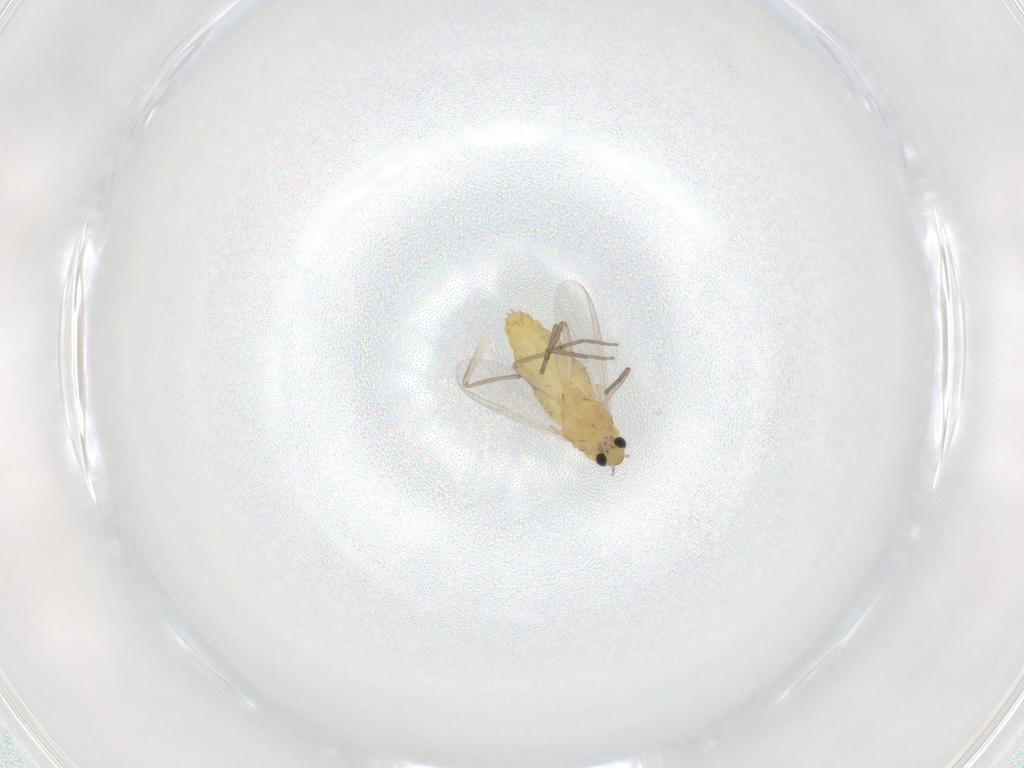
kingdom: Animalia
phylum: Arthropoda
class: Insecta
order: Diptera
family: Chironomidae
